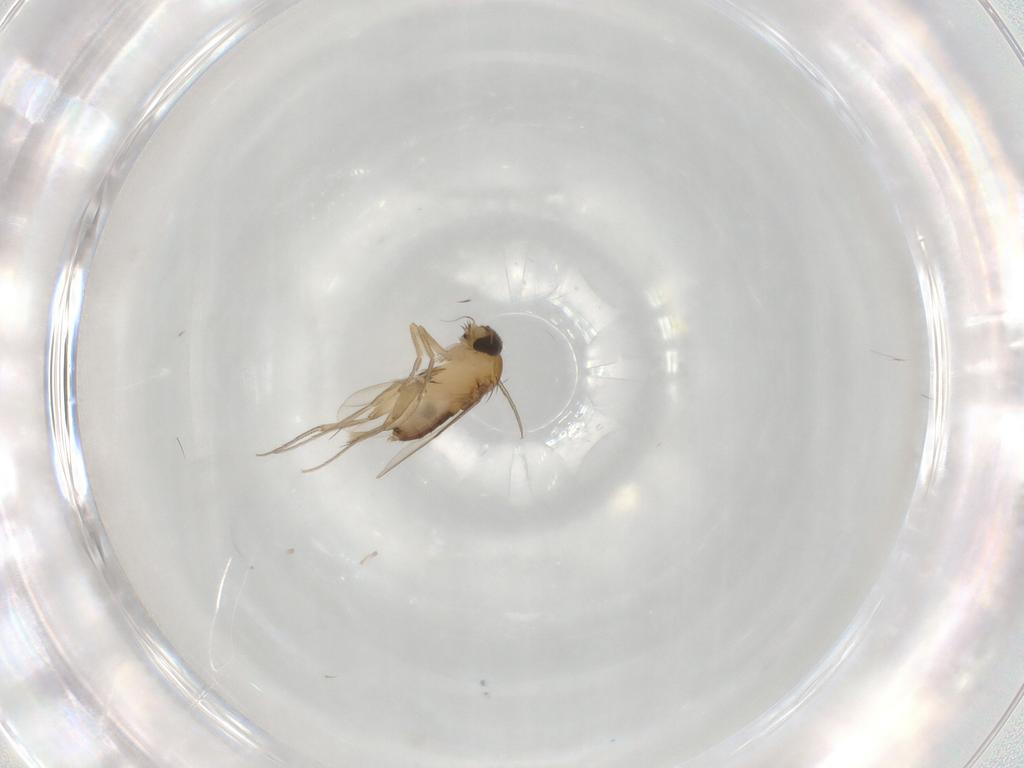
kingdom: Animalia
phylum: Arthropoda
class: Insecta
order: Diptera
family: Phoridae
